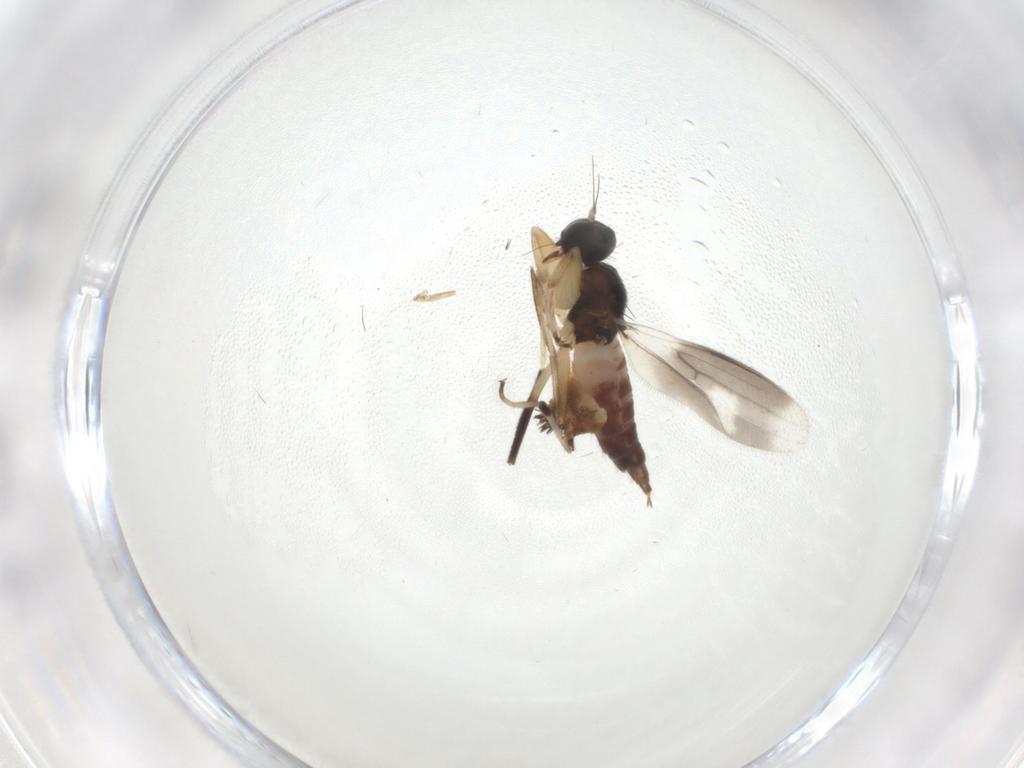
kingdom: Animalia
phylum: Arthropoda
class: Insecta
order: Diptera
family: Chironomidae
